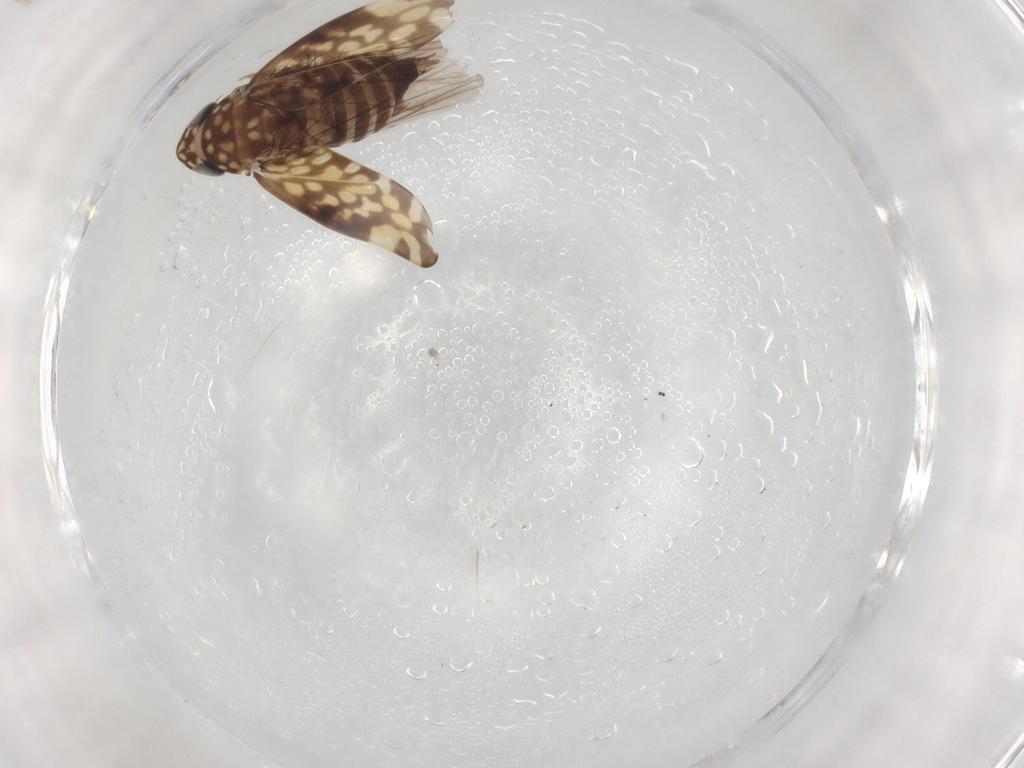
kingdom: Animalia
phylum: Arthropoda
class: Insecta
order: Hemiptera
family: Cicadellidae
